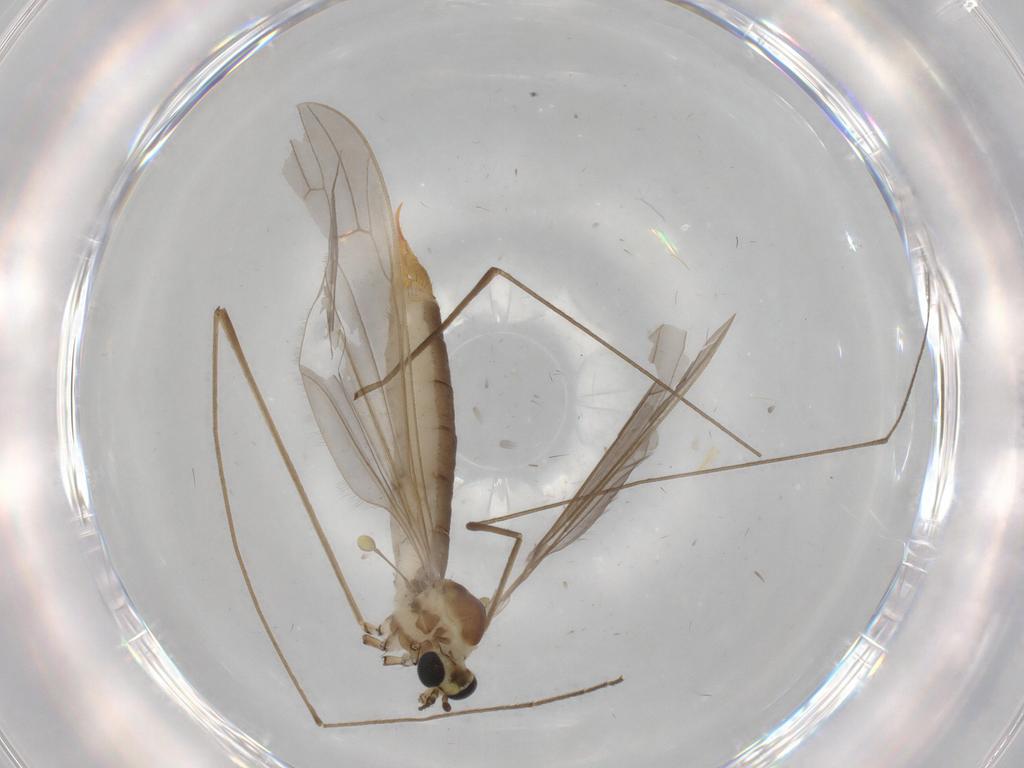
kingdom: Animalia
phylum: Arthropoda
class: Insecta
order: Diptera
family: Limoniidae
